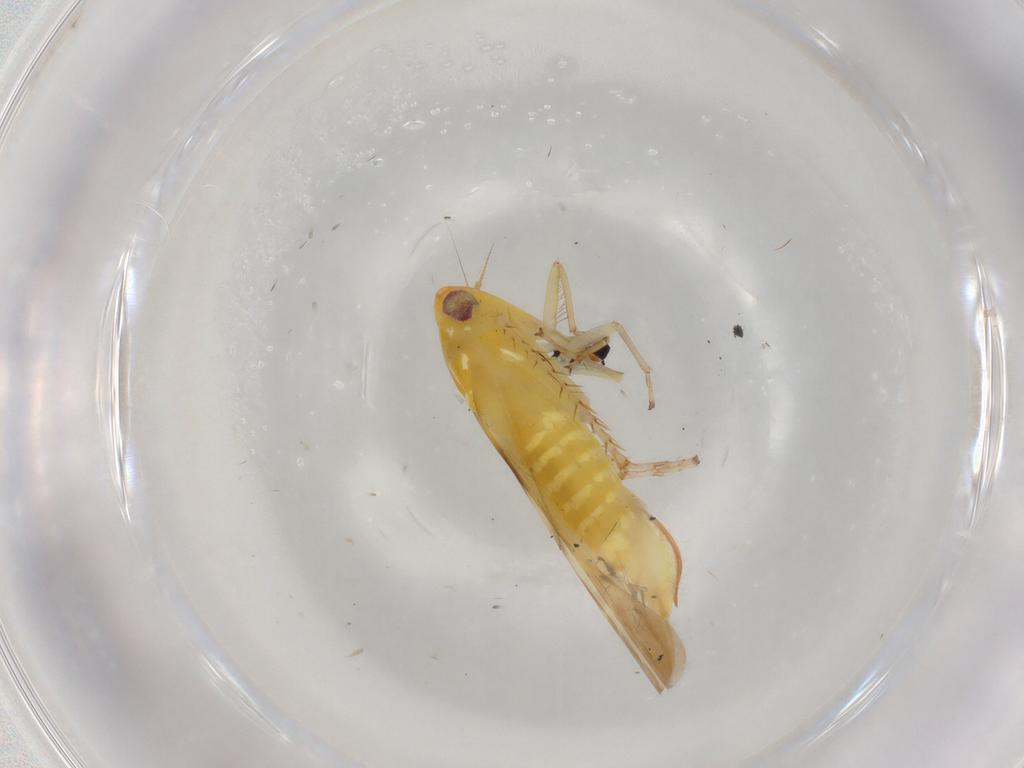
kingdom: Animalia
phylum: Arthropoda
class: Insecta
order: Hemiptera
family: Cicadellidae
